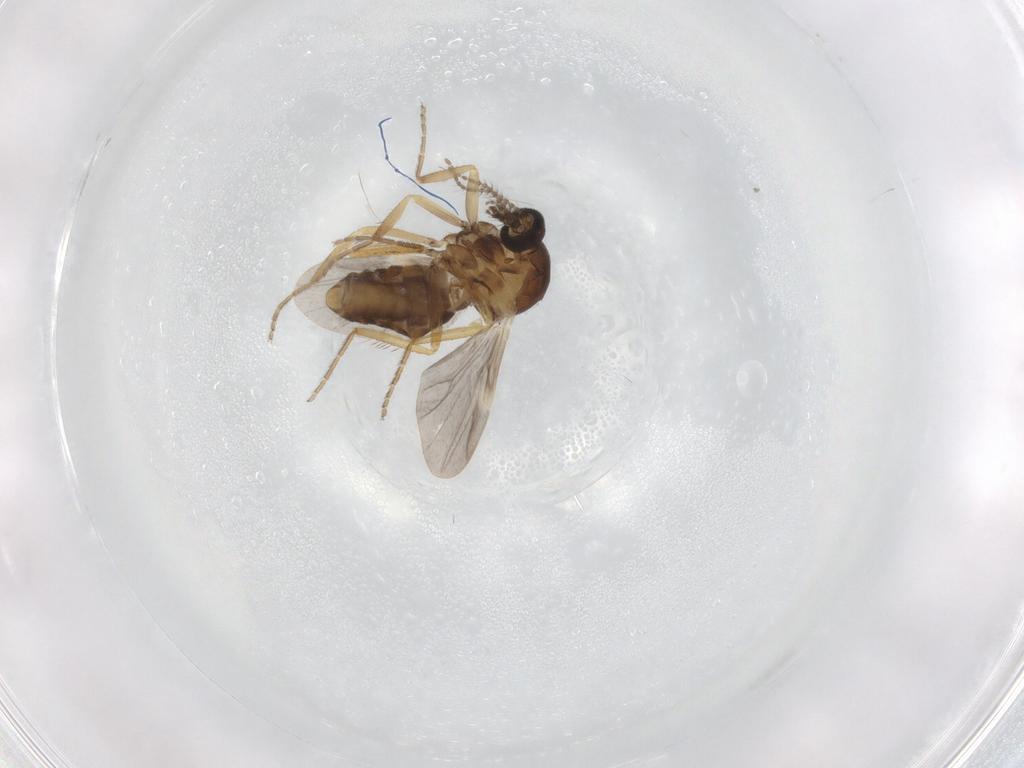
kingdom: Animalia
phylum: Arthropoda
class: Insecta
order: Diptera
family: Ceratopogonidae
